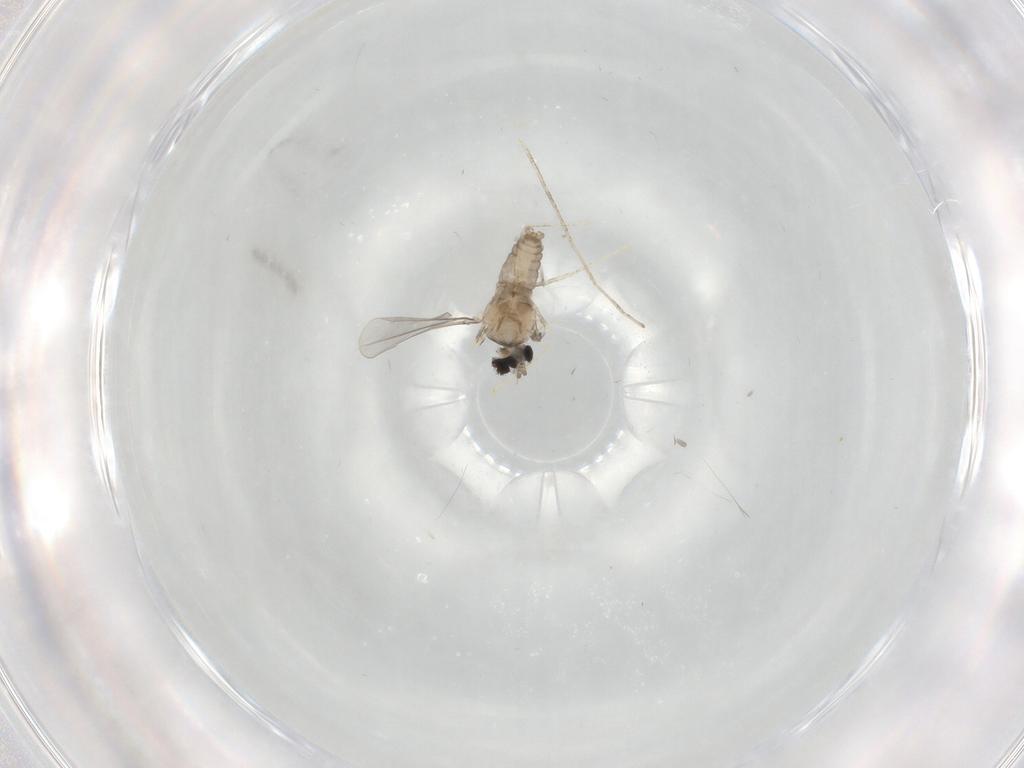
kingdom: Animalia
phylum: Arthropoda
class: Insecta
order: Diptera
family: Cecidomyiidae
